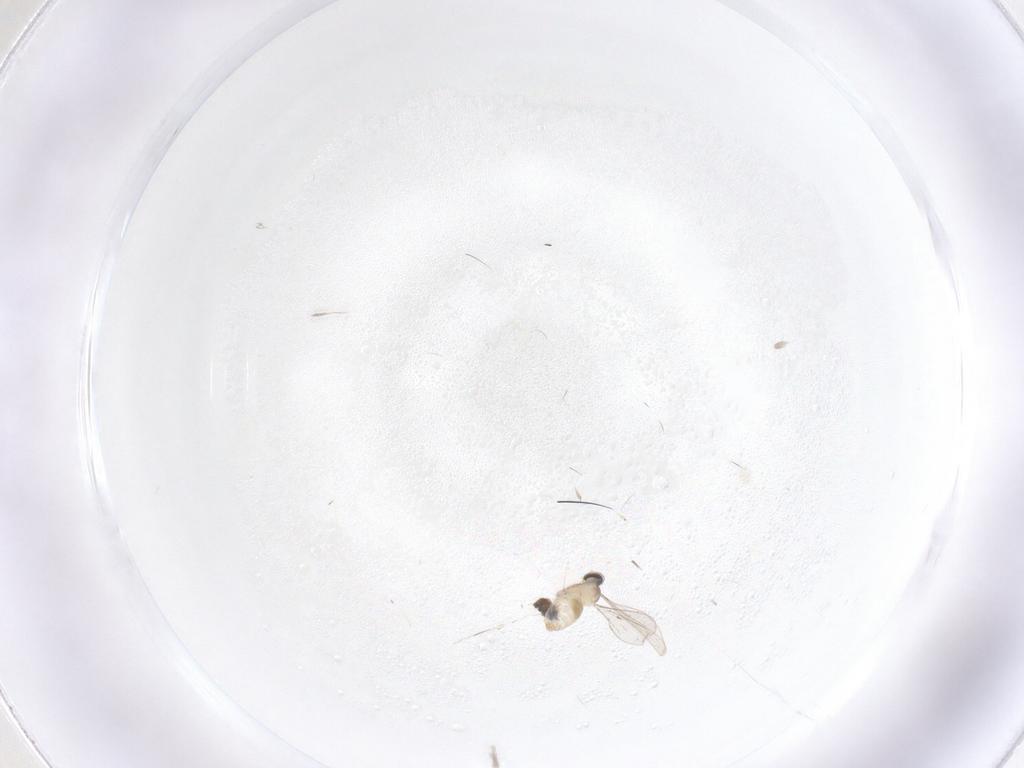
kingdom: Animalia
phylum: Arthropoda
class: Insecta
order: Diptera
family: Cecidomyiidae
